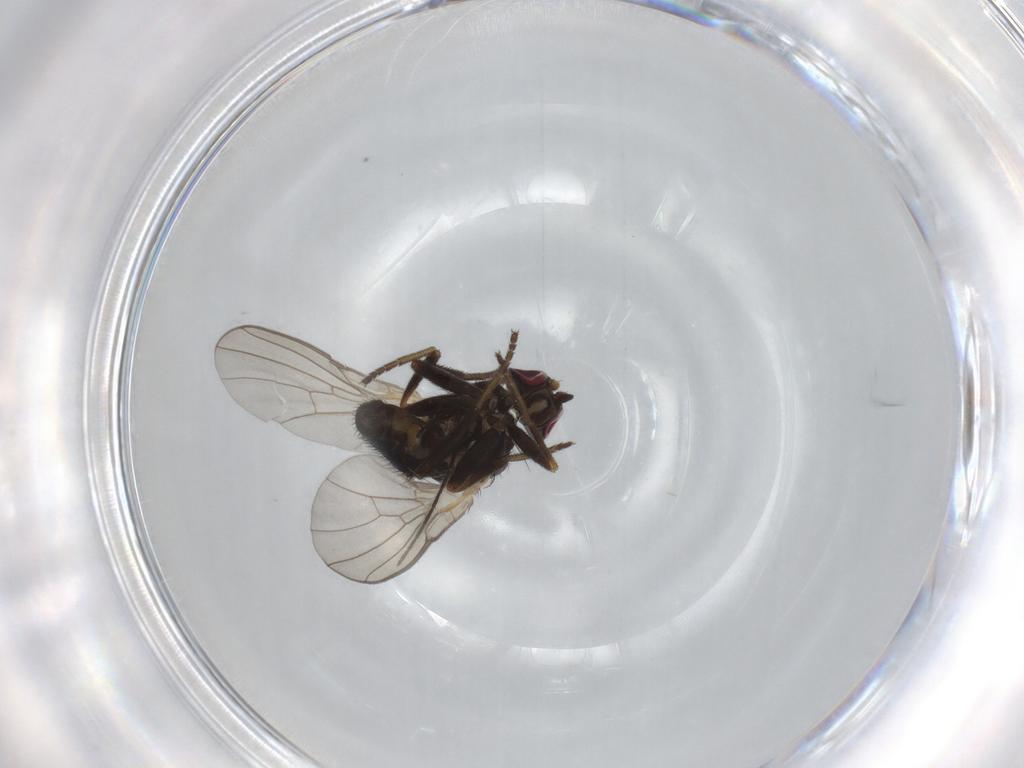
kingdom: Animalia
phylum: Arthropoda
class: Insecta
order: Diptera
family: Agromyzidae
